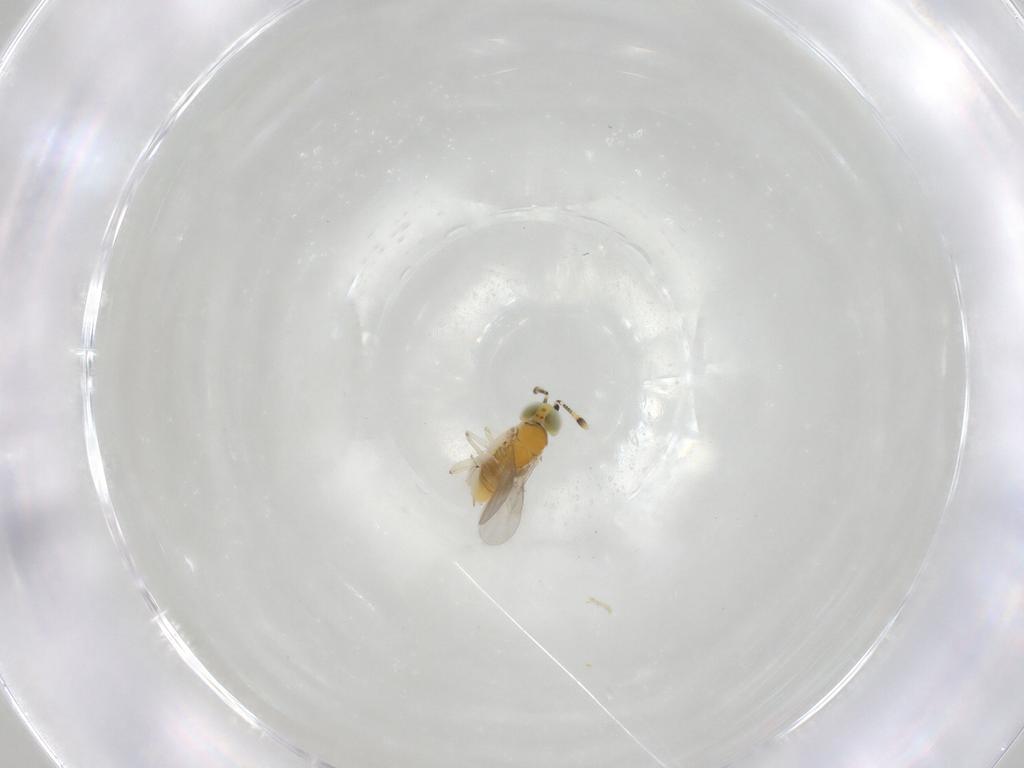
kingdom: Animalia
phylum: Arthropoda
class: Insecta
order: Hymenoptera
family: Encyrtidae
